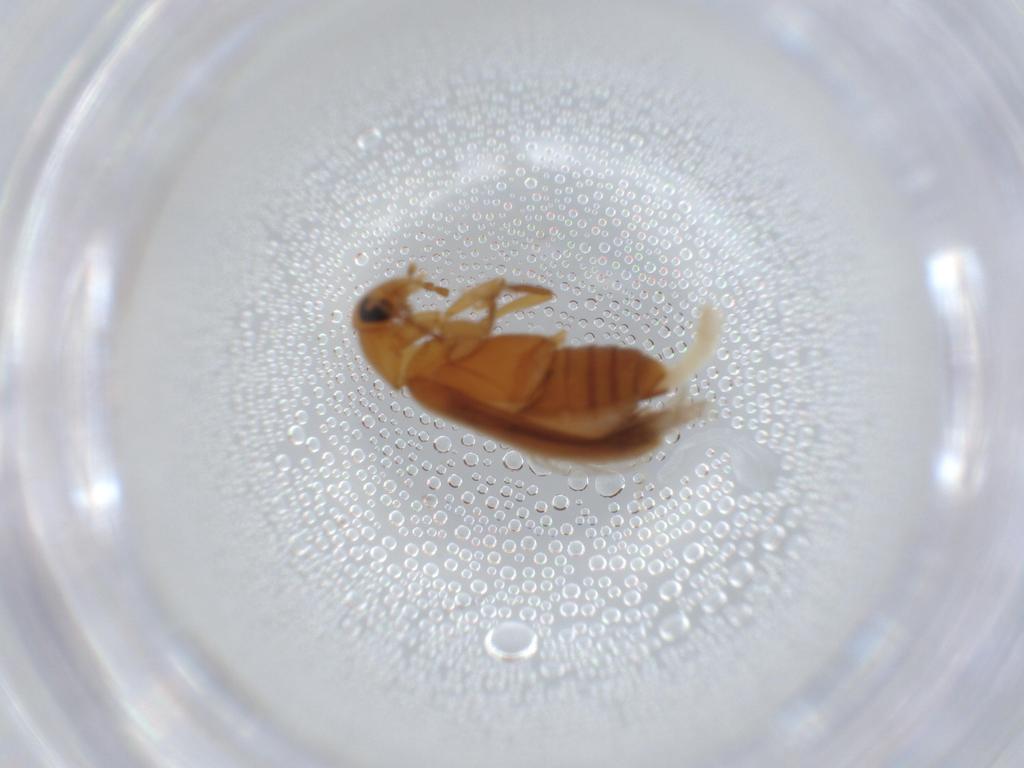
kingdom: Animalia
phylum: Arthropoda
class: Insecta
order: Coleoptera
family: Scraptiidae
